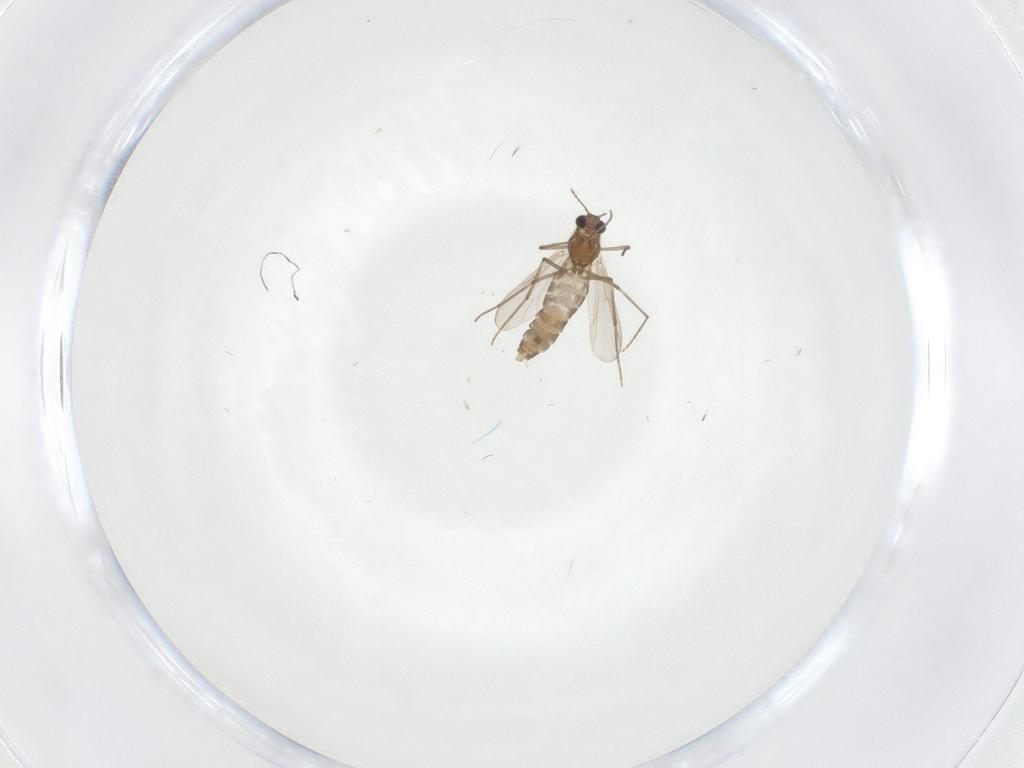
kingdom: Animalia
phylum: Arthropoda
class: Insecta
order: Diptera
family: Chironomidae
